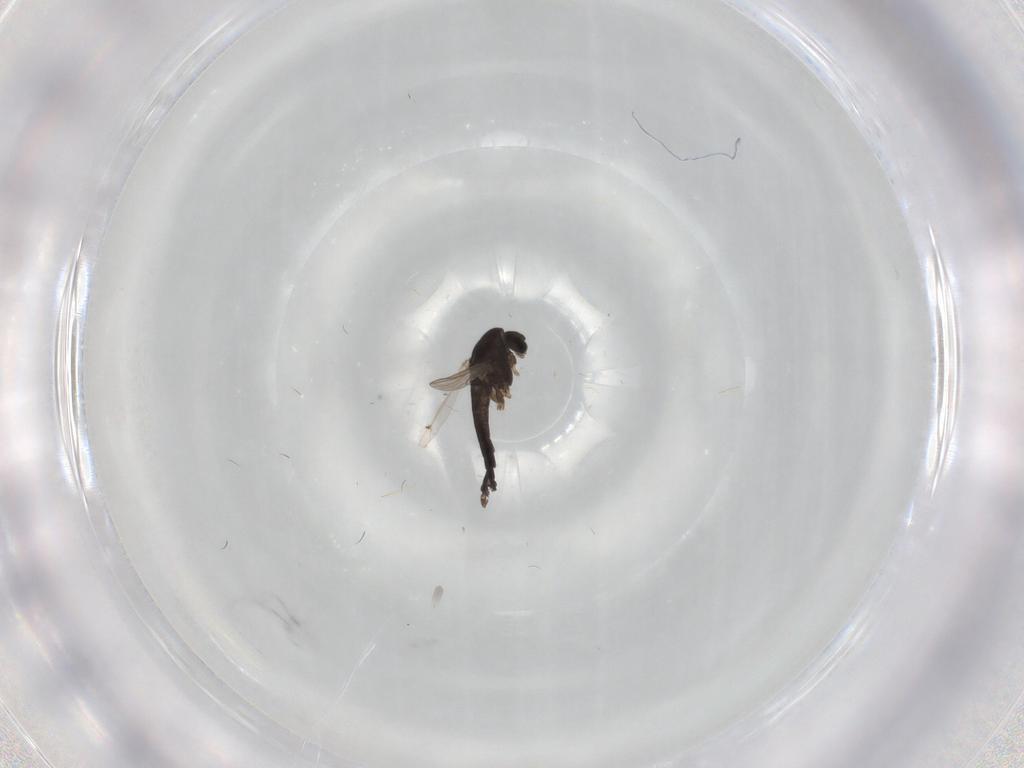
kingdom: Animalia
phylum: Arthropoda
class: Insecta
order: Diptera
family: Chironomidae
